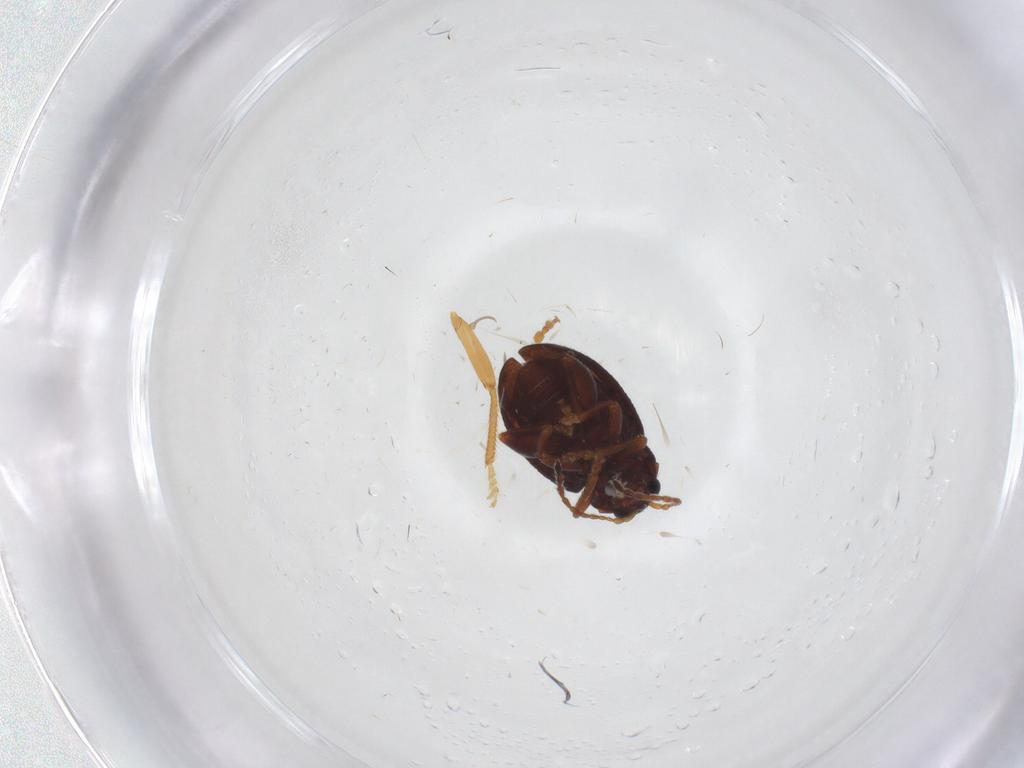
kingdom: Animalia
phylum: Arthropoda
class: Insecta
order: Coleoptera
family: Chrysomelidae
